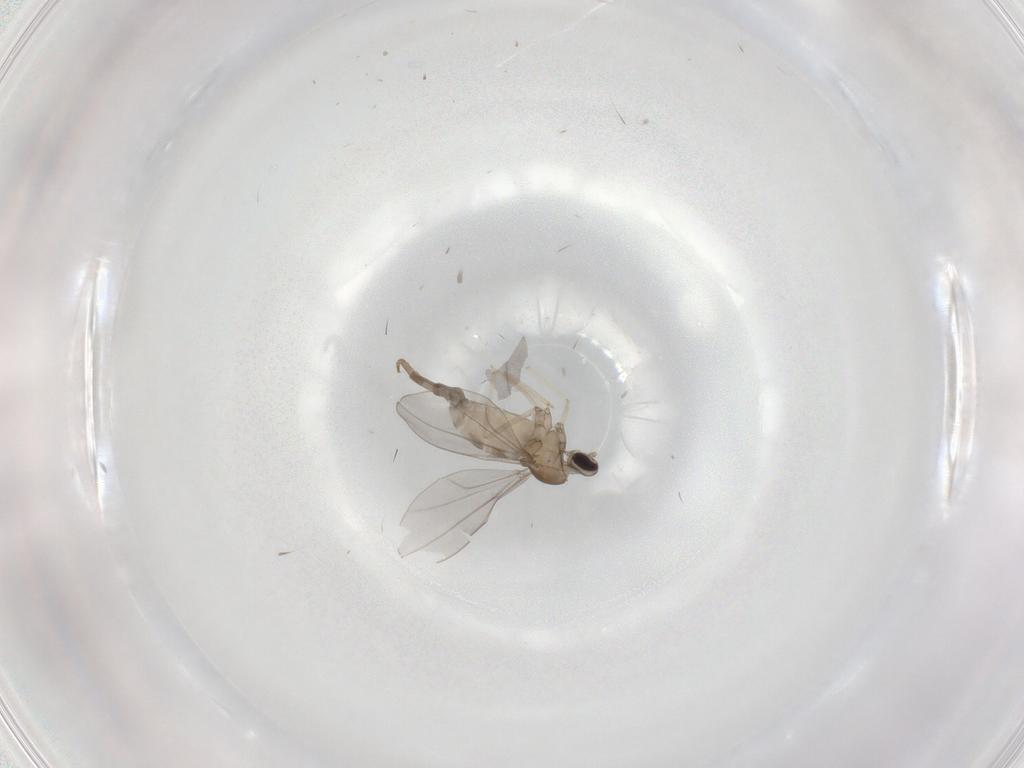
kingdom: Animalia
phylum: Arthropoda
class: Insecta
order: Diptera
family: Cecidomyiidae
